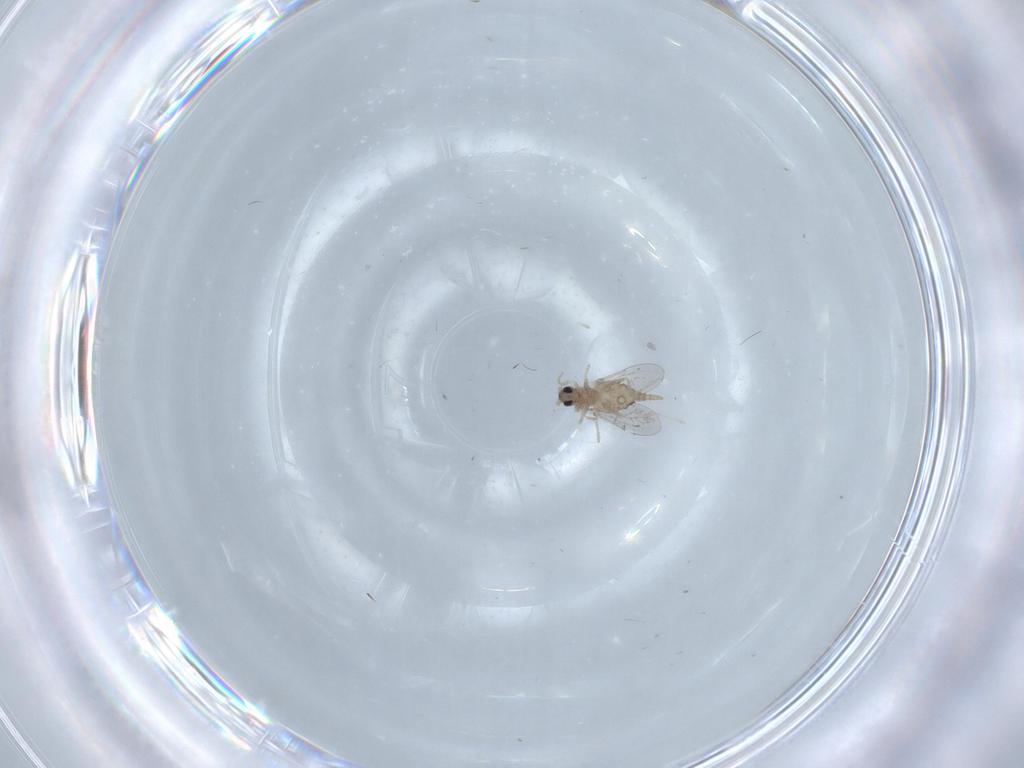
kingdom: Animalia
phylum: Arthropoda
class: Insecta
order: Diptera
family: Cecidomyiidae
